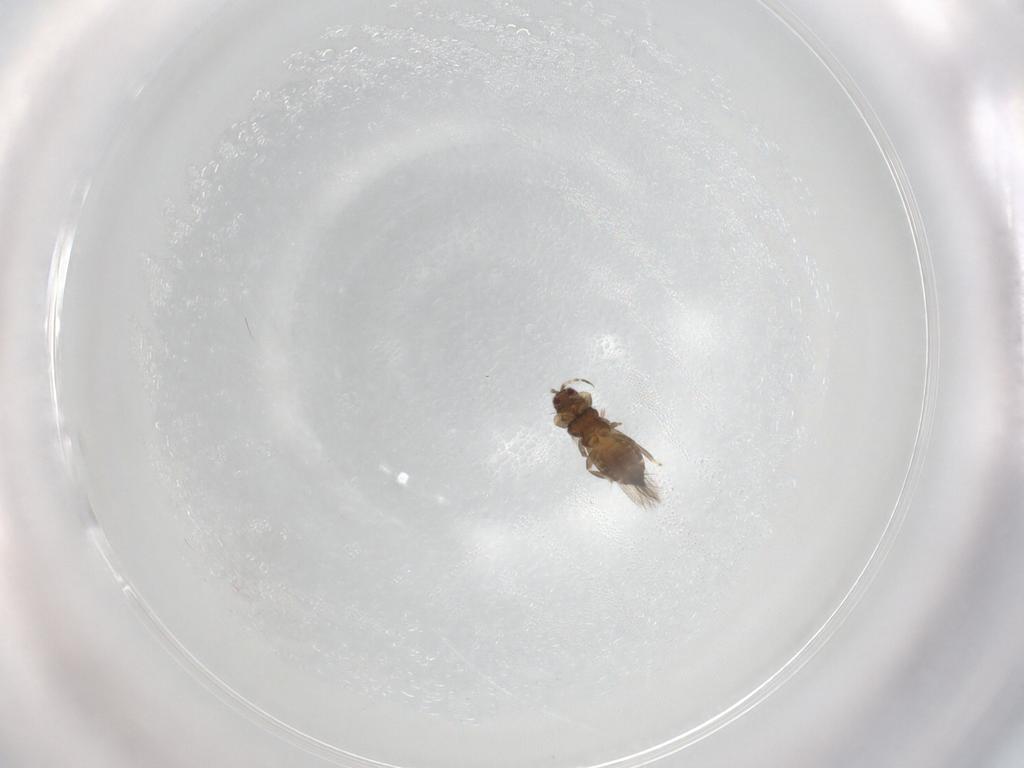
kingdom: Animalia
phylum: Arthropoda
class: Insecta
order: Thysanoptera
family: Thripidae
